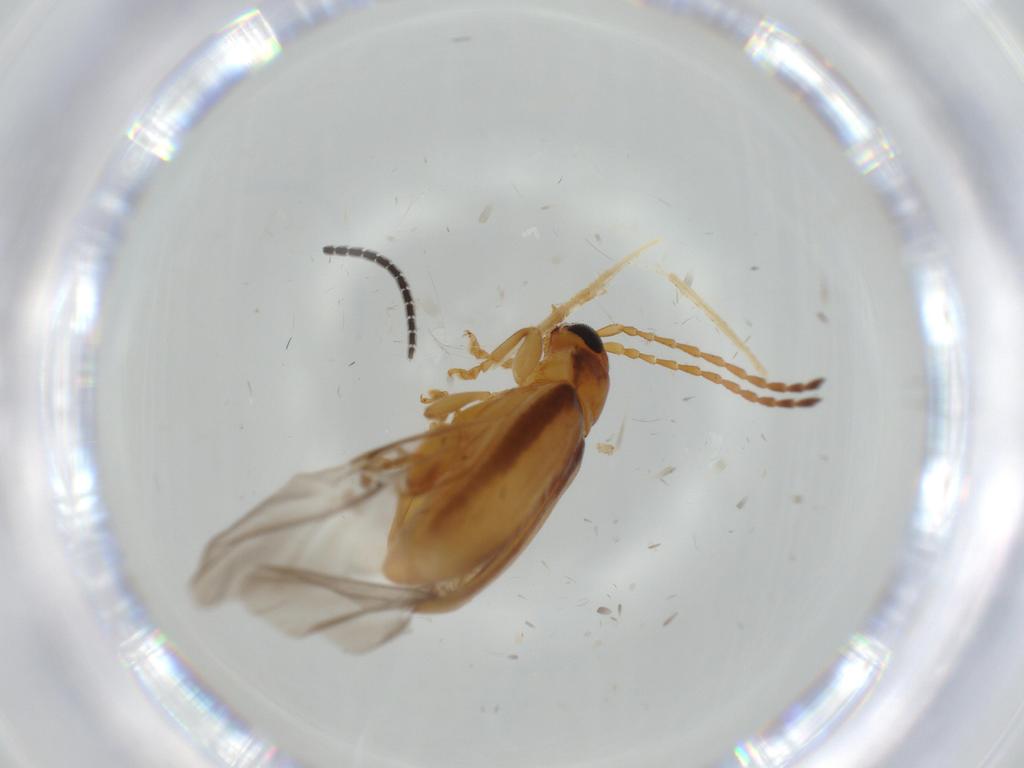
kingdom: Animalia
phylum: Arthropoda
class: Insecta
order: Coleoptera
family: Chrysomelidae
